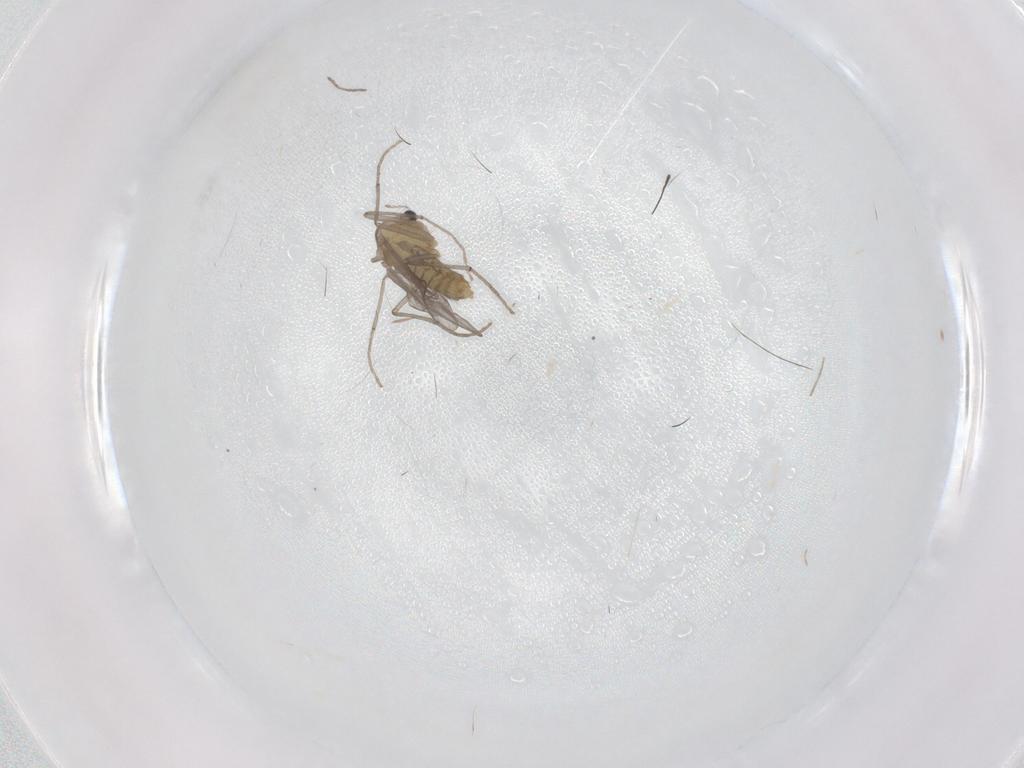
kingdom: Animalia
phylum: Arthropoda
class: Insecta
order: Diptera
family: Chironomidae
